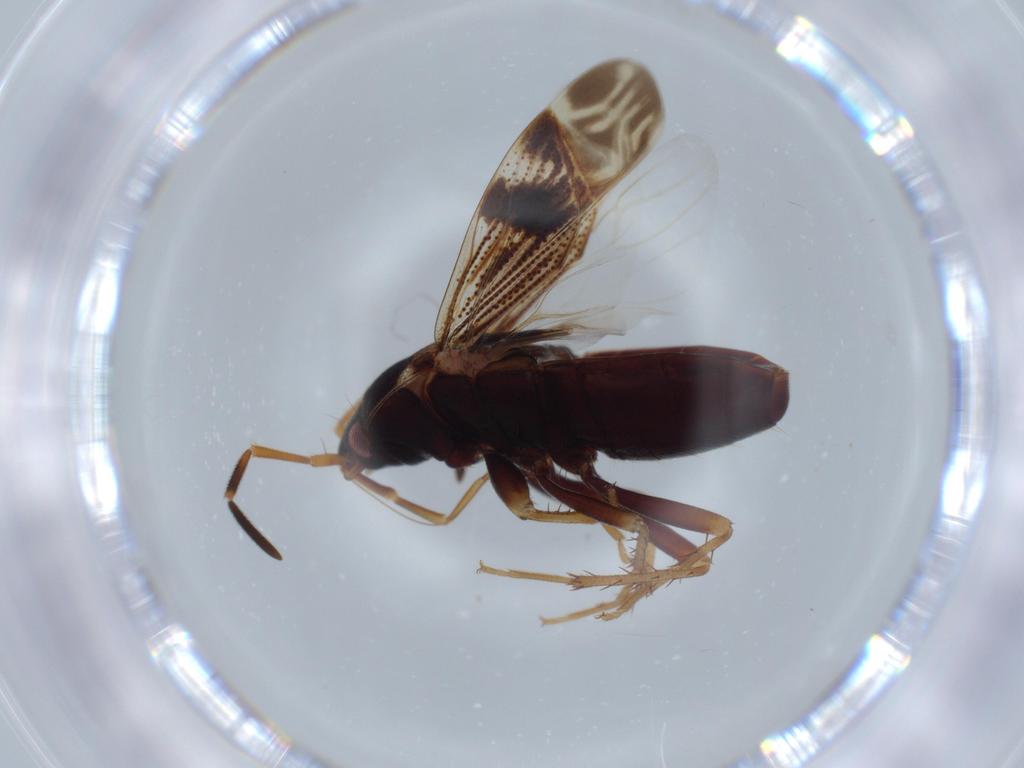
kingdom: Animalia
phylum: Arthropoda
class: Insecta
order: Hemiptera
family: Rhyparochromidae
